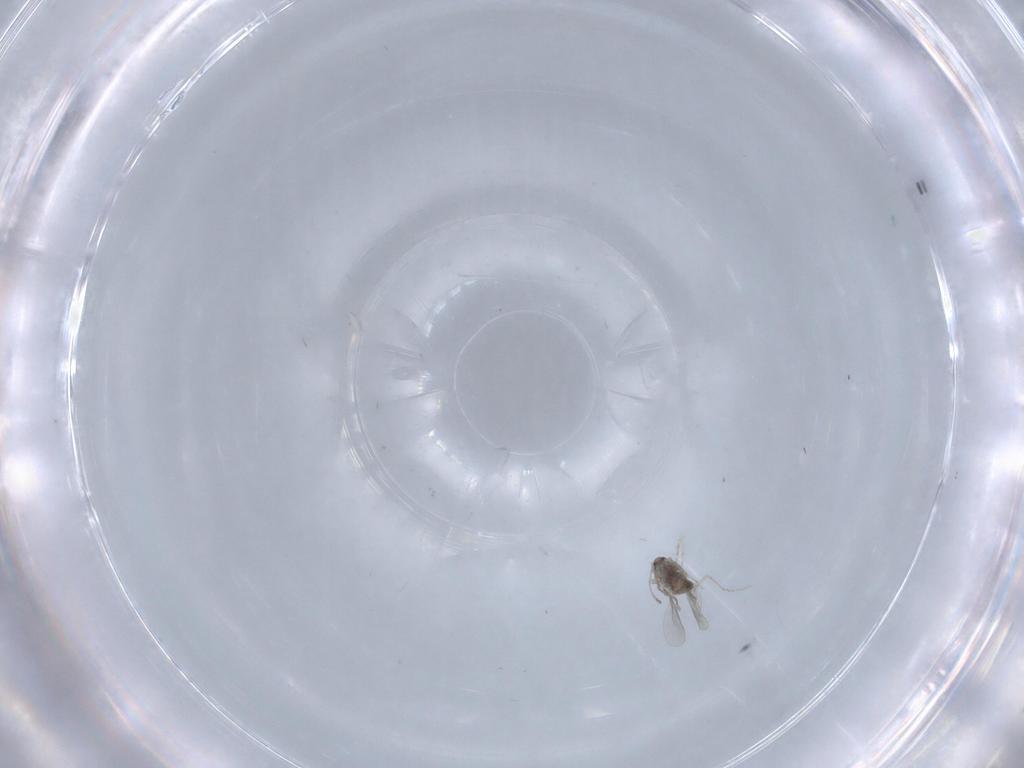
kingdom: Animalia
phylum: Arthropoda
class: Insecta
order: Diptera
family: Cecidomyiidae
